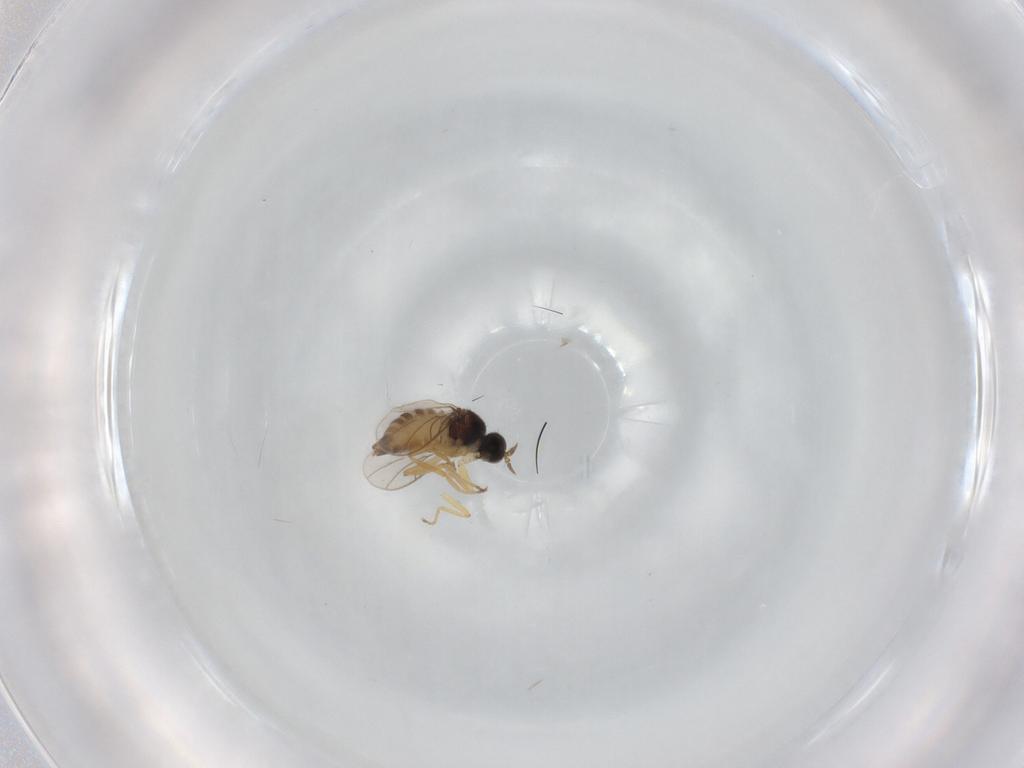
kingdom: Animalia
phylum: Arthropoda
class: Insecta
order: Diptera
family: Hybotidae
